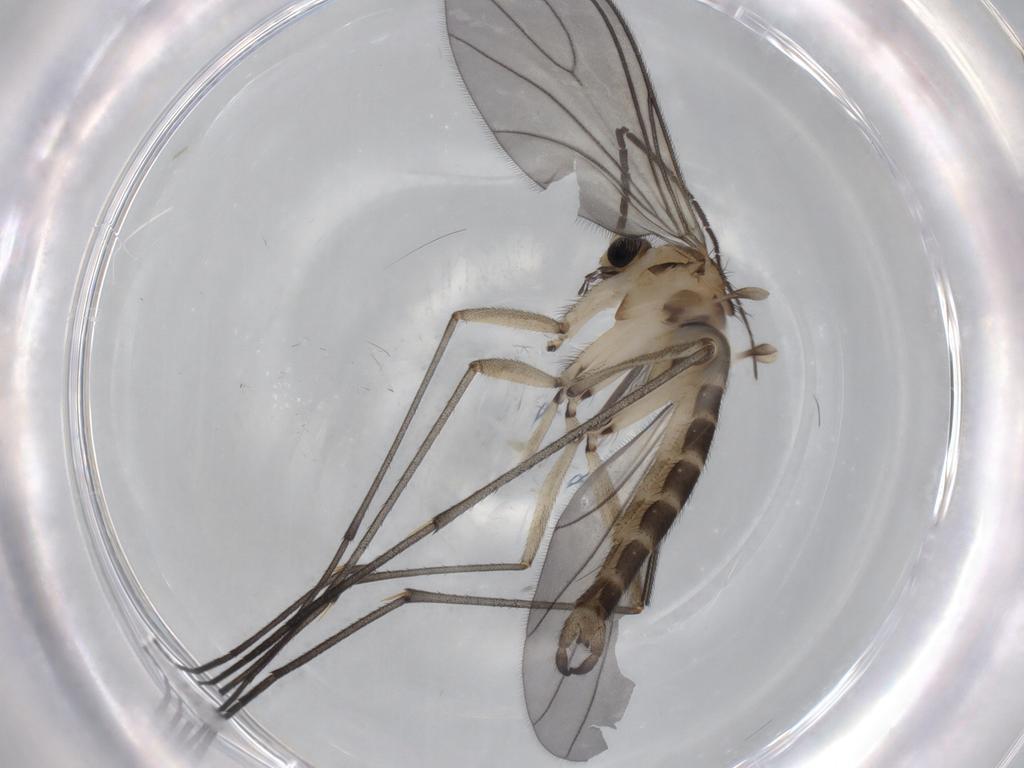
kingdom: Animalia
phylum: Arthropoda
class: Insecta
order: Diptera
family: Sciaridae
